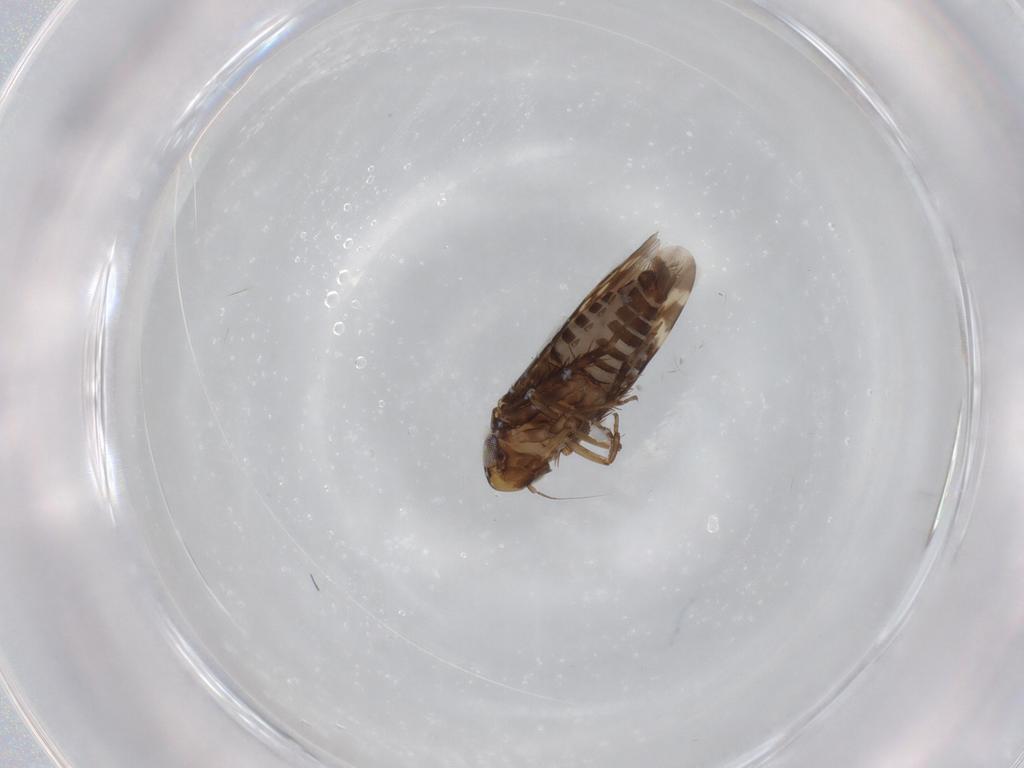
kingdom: Animalia
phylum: Arthropoda
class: Insecta
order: Hemiptera
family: Cicadellidae
